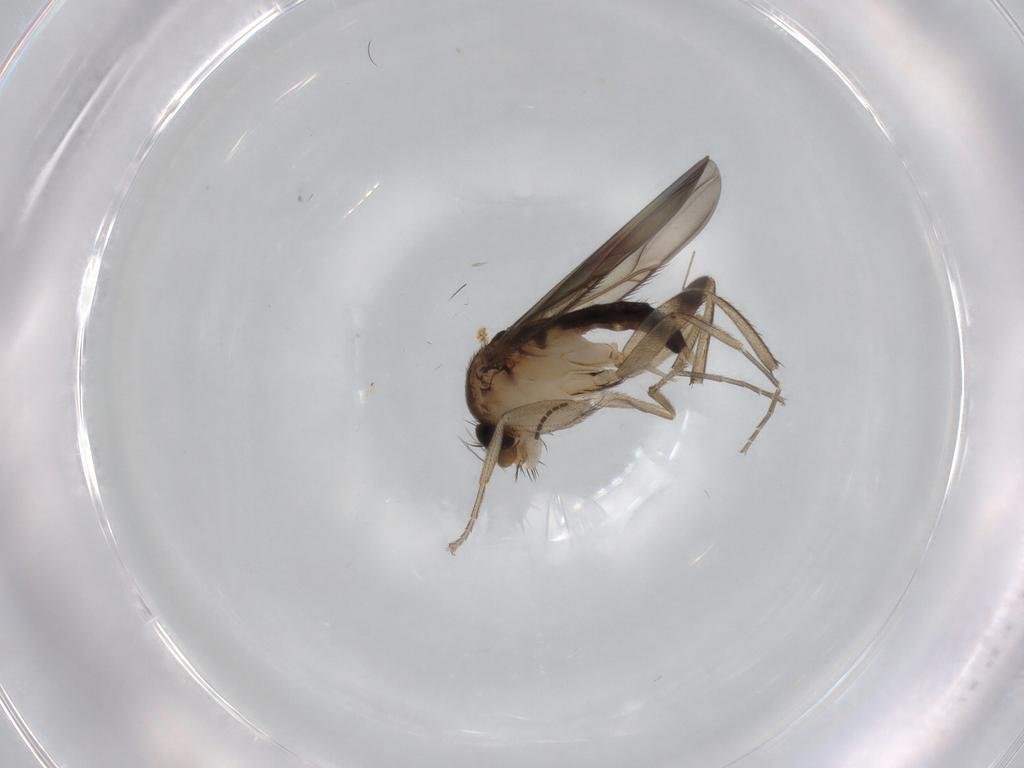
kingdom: Animalia
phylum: Arthropoda
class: Insecta
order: Diptera
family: Phoridae
